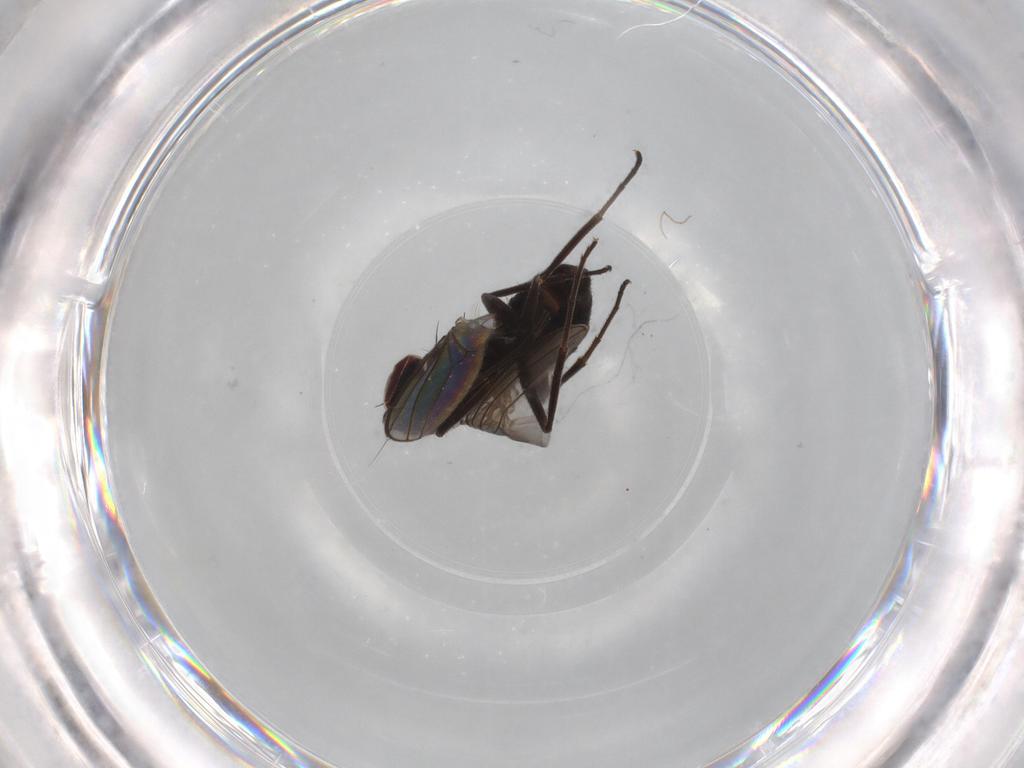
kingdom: Animalia
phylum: Arthropoda
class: Insecta
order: Diptera
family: Dolichopodidae
